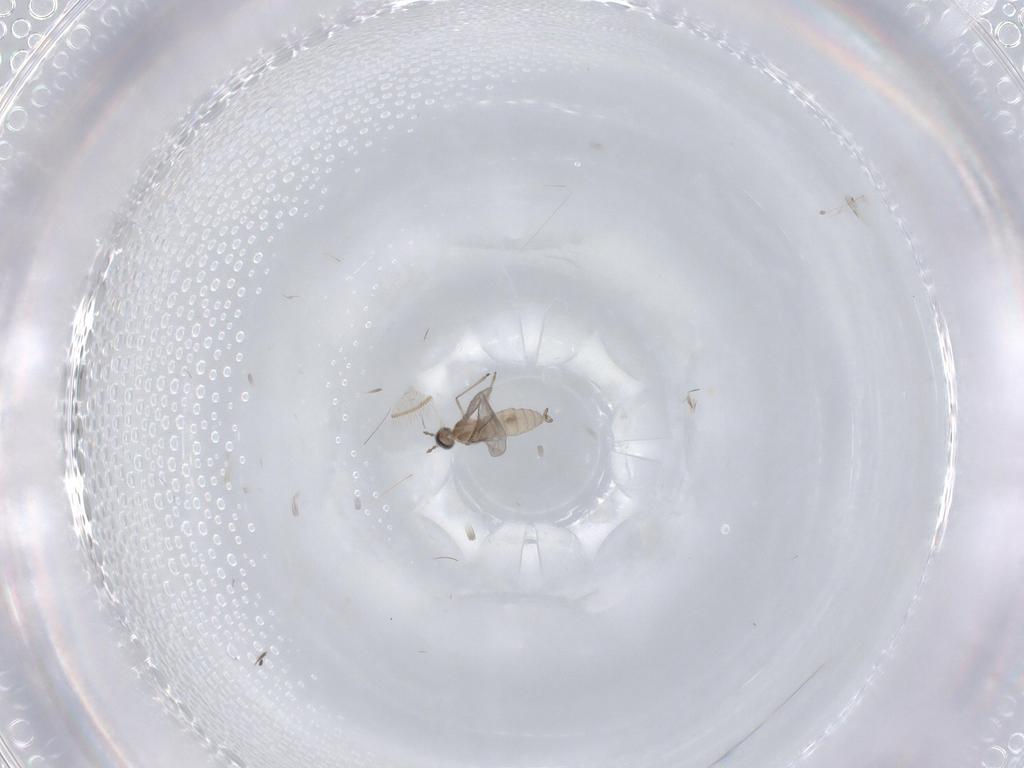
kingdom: Animalia
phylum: Arthropoda
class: Insecta
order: Diptera
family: Limoniidae
